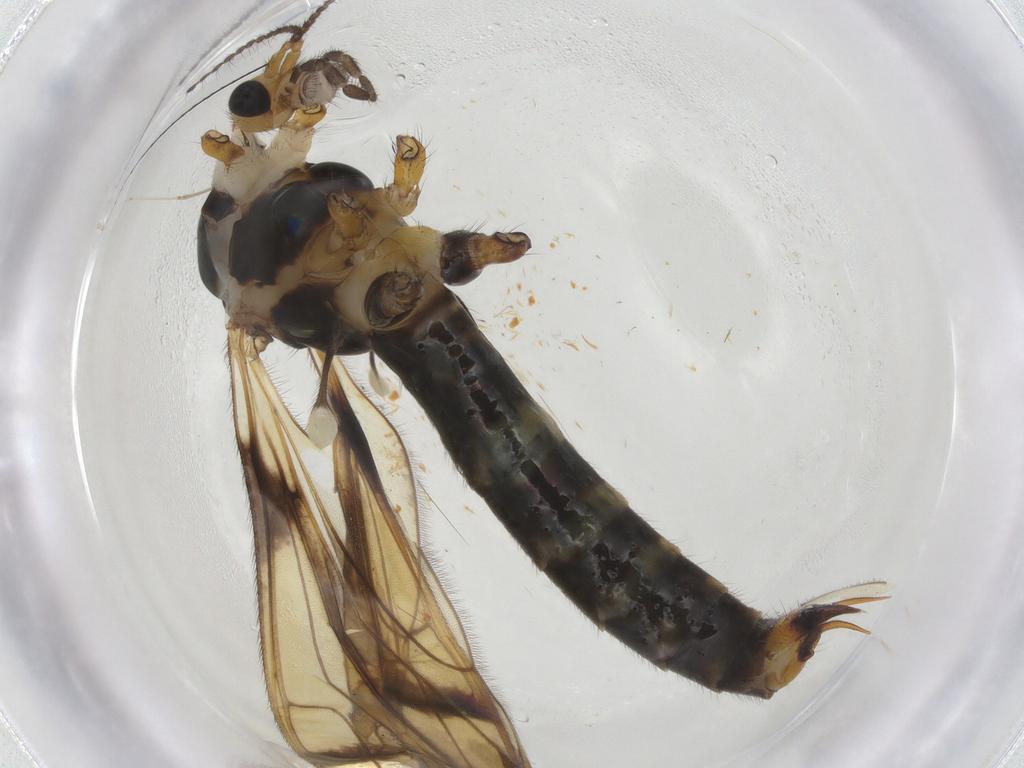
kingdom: Animalia
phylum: Arthropoda
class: Insecta
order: Diptera
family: Limoniidae
